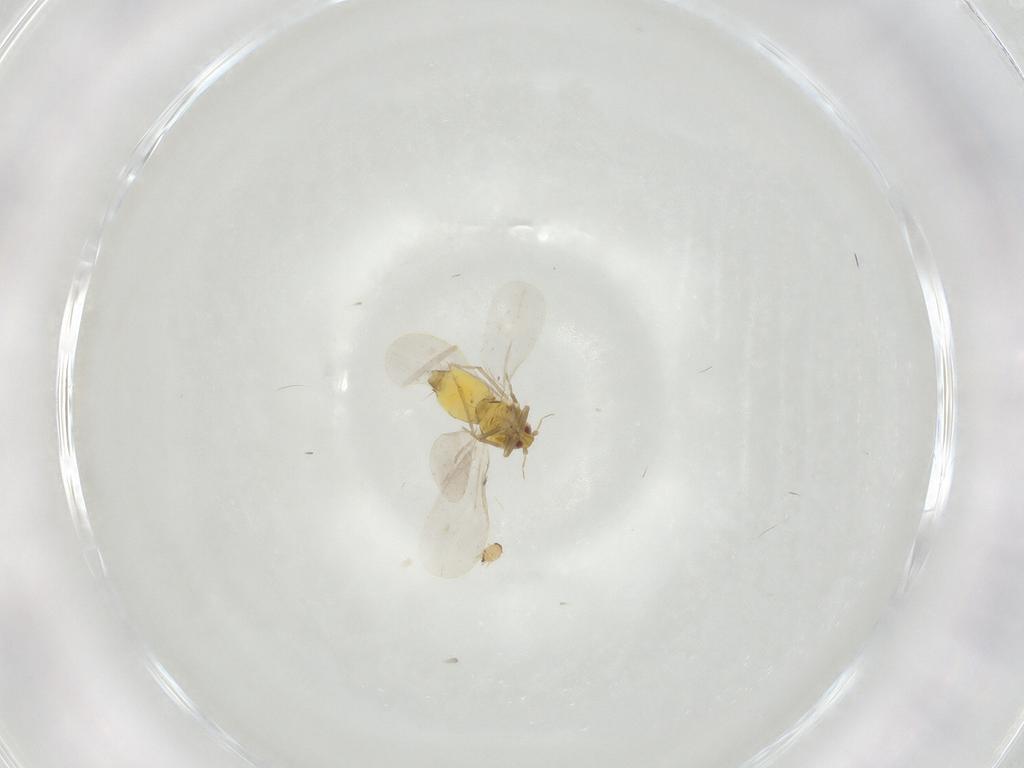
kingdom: Animalia
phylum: Arthropoda
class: Insecta
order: Hemiptera
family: Aleyrodidae
